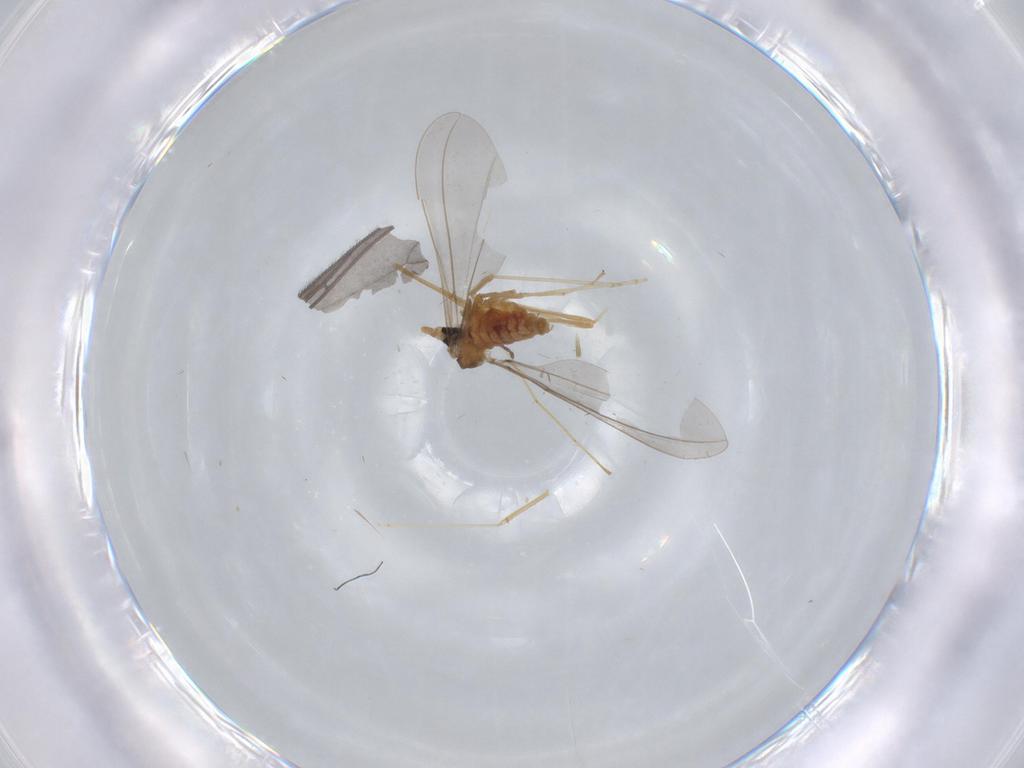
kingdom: Animalia
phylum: Arthropoda
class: Insecta
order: Diptera
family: Cecidomyiidae
